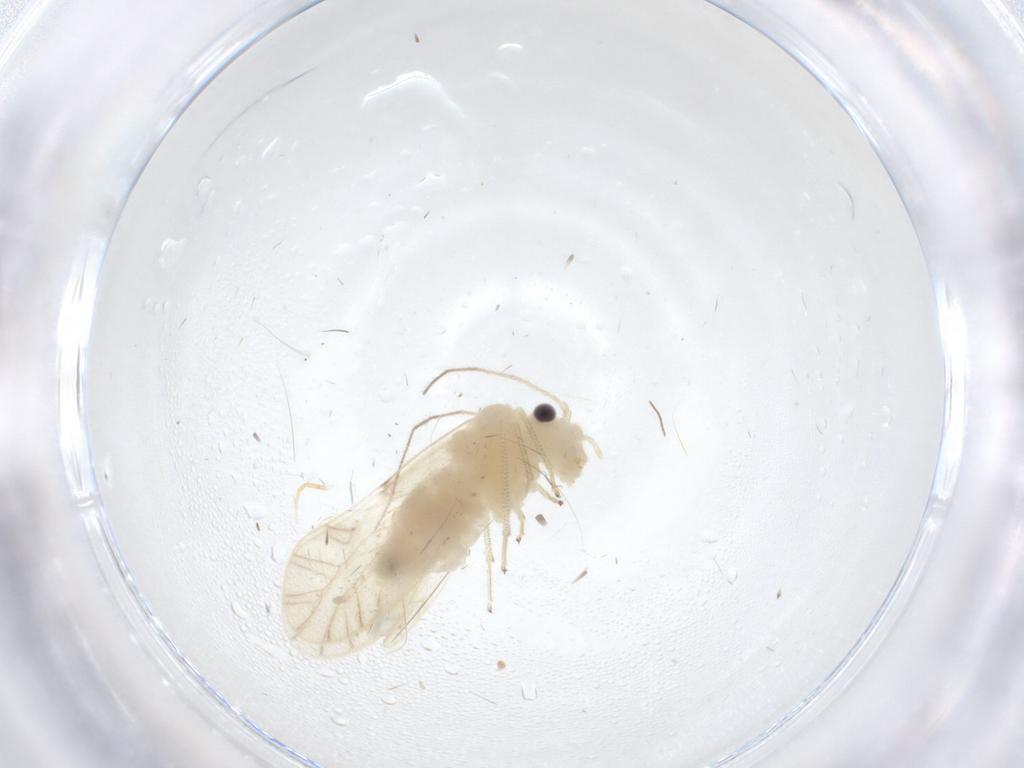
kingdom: Animalia
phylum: Arthropoda
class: Insecta
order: Psocodea
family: Caeciliusidae
